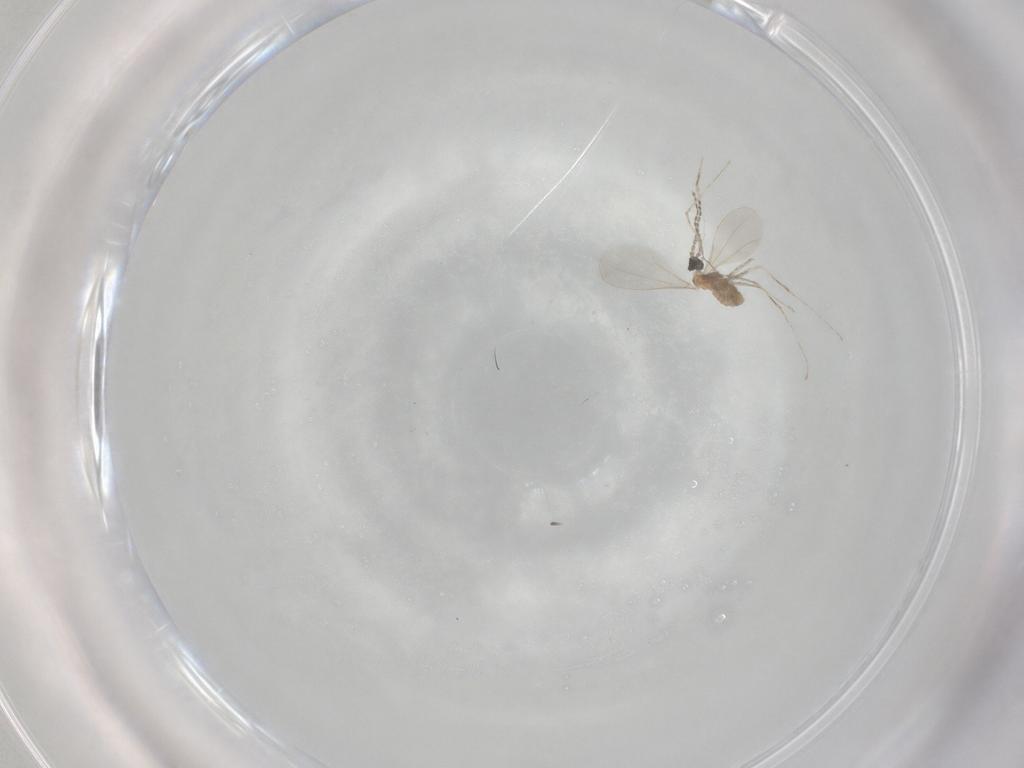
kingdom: Animalia
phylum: Arthropoda
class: Insecta
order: Diptera
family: Cecidomyiidae
